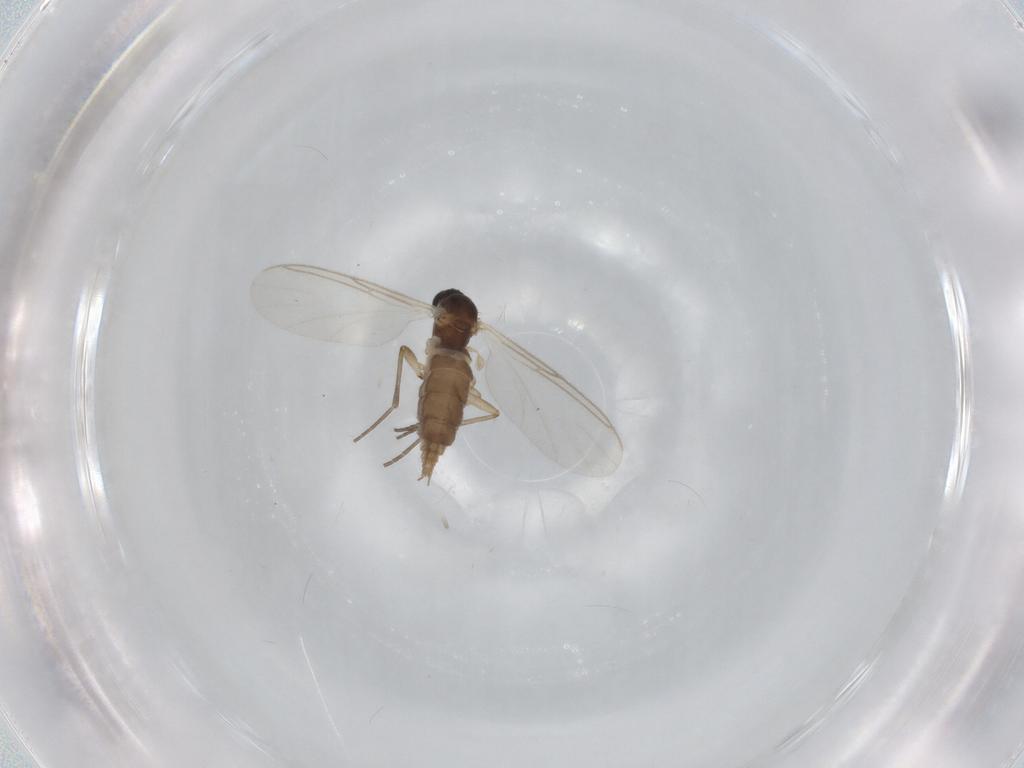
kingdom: Animalia
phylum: Arthropoda
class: Insecta
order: Diptera
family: Sciaridae
